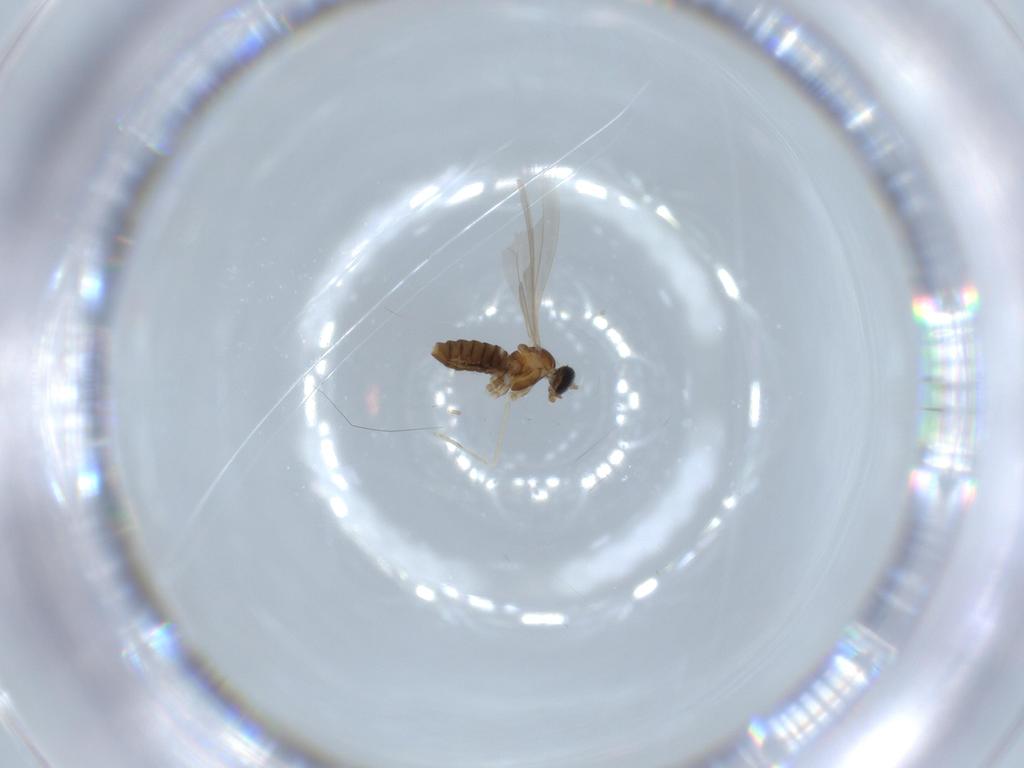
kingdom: Animalia
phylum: Arthropoda
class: Insecta
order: Diptera
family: Cecidomyiidae
